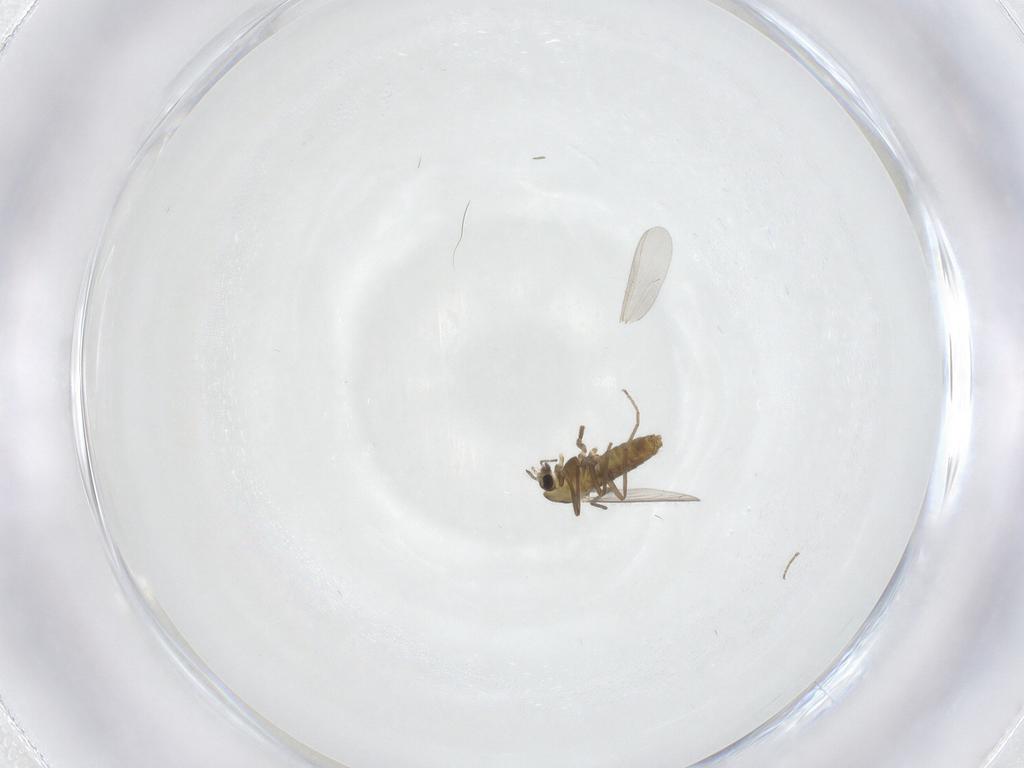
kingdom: Animalia
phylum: Arthropoda
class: Insecta
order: Diptera
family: Chironomidae
